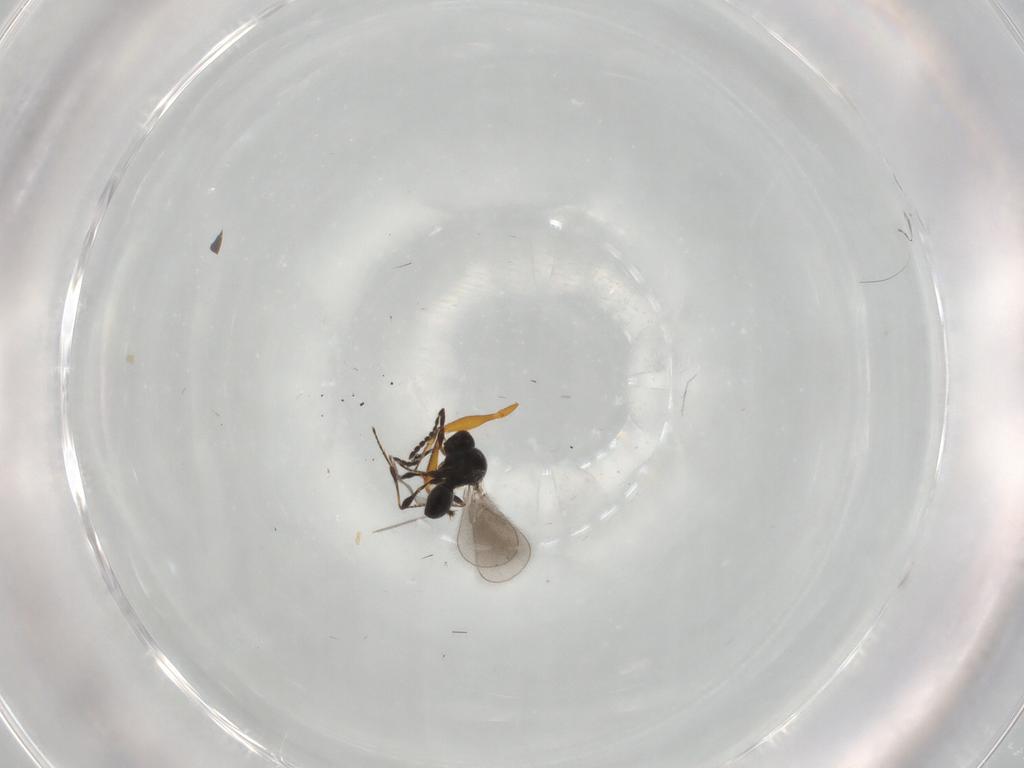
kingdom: Animalia
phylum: Arthropoda
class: Insecta
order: Hymenoptera
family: Platygastridae
